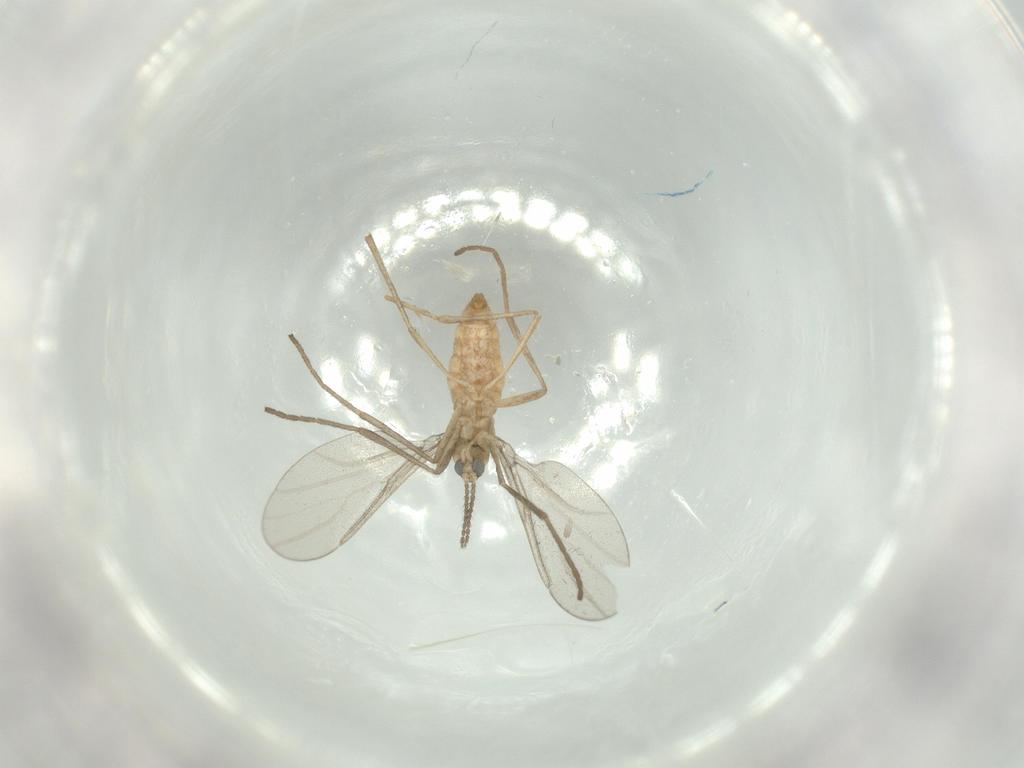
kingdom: Animalia
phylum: Arthropoda
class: Insecta
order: Diptera
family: Cecidomyiidae
